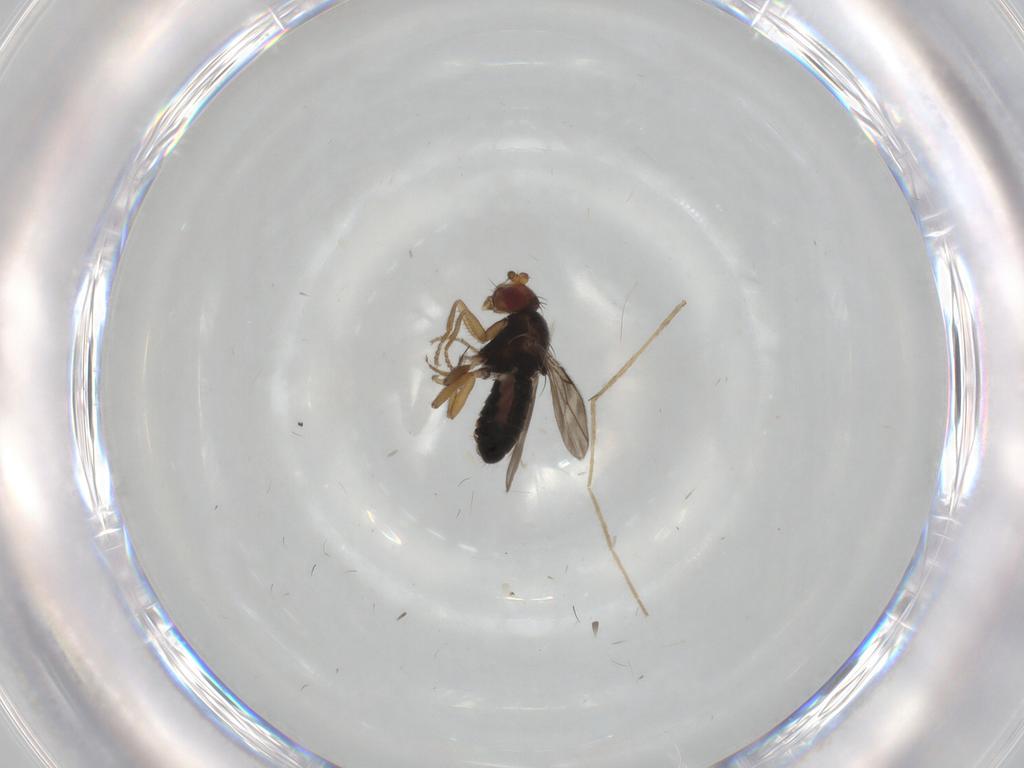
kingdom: Animalia
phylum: Arthropoda
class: Insecta
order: Diptera
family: Sphaeroceridae
